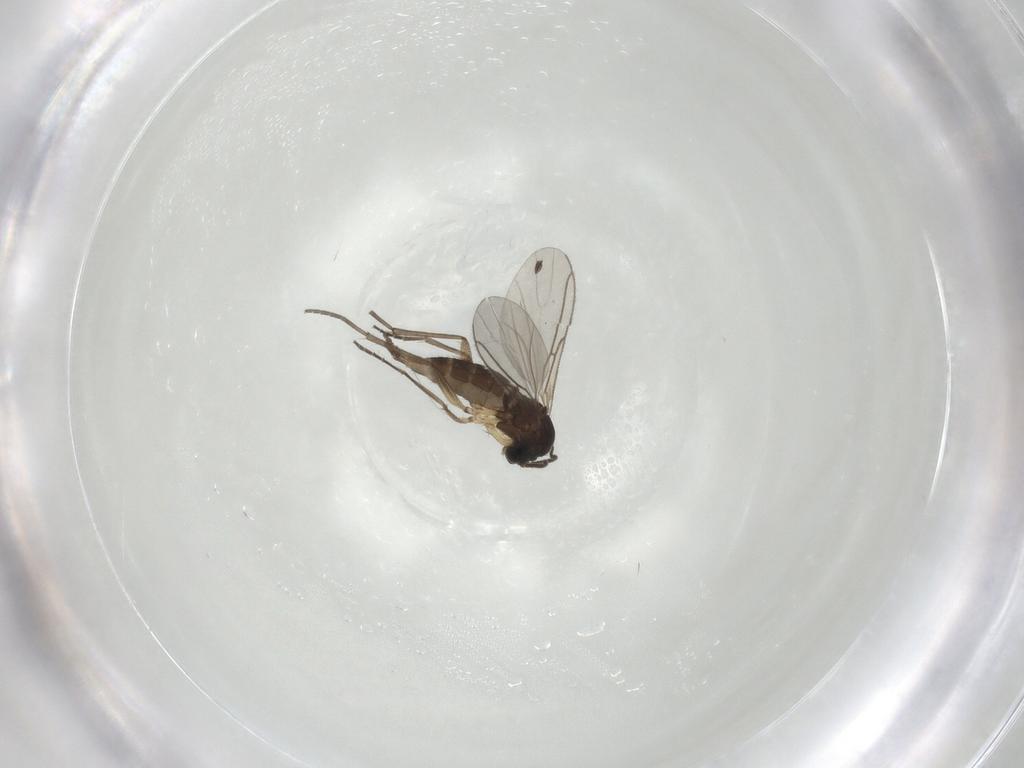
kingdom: Animalia
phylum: Arthropoda
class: Insecta
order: Diptera
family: Sciaridae
